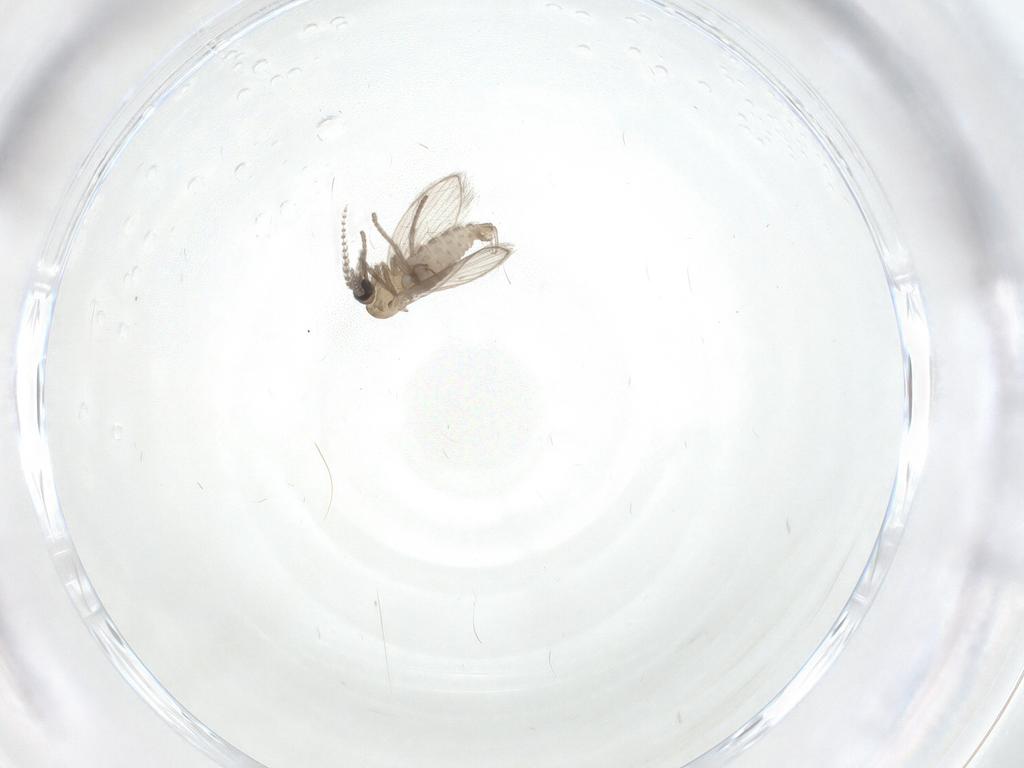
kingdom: Animalia
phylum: Arthropoda
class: Insecta
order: Diptera
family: Psychodidae
